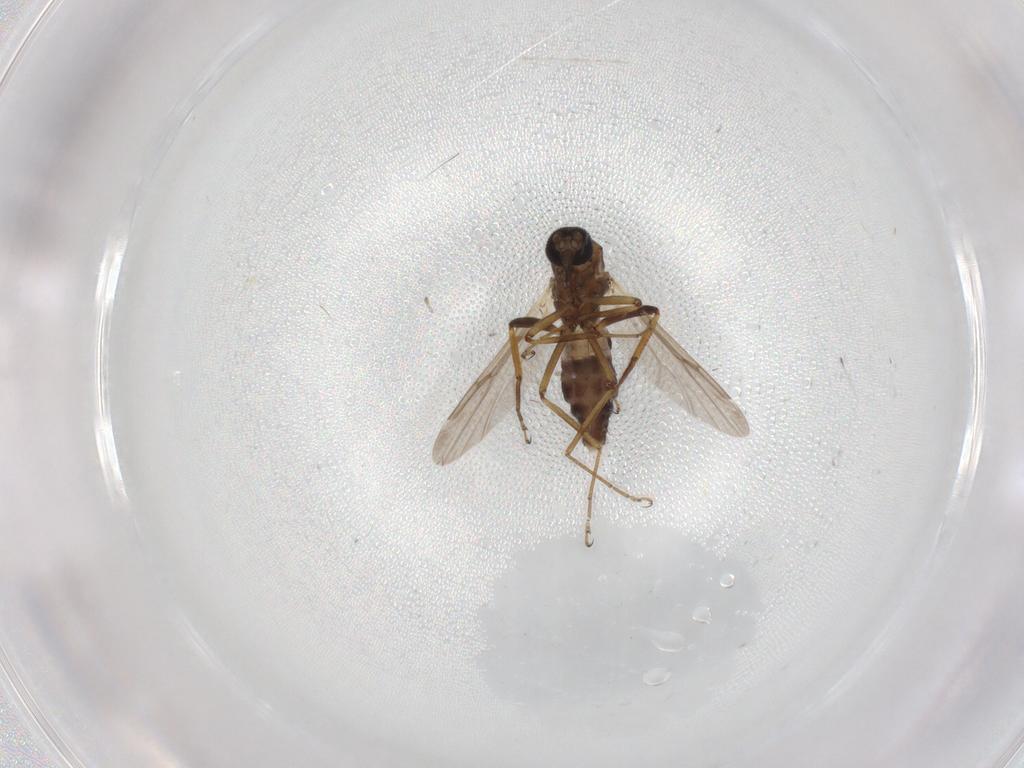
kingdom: Animalia
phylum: Arthropoda
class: Insecta
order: Diptera
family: Ceratopogonidae
